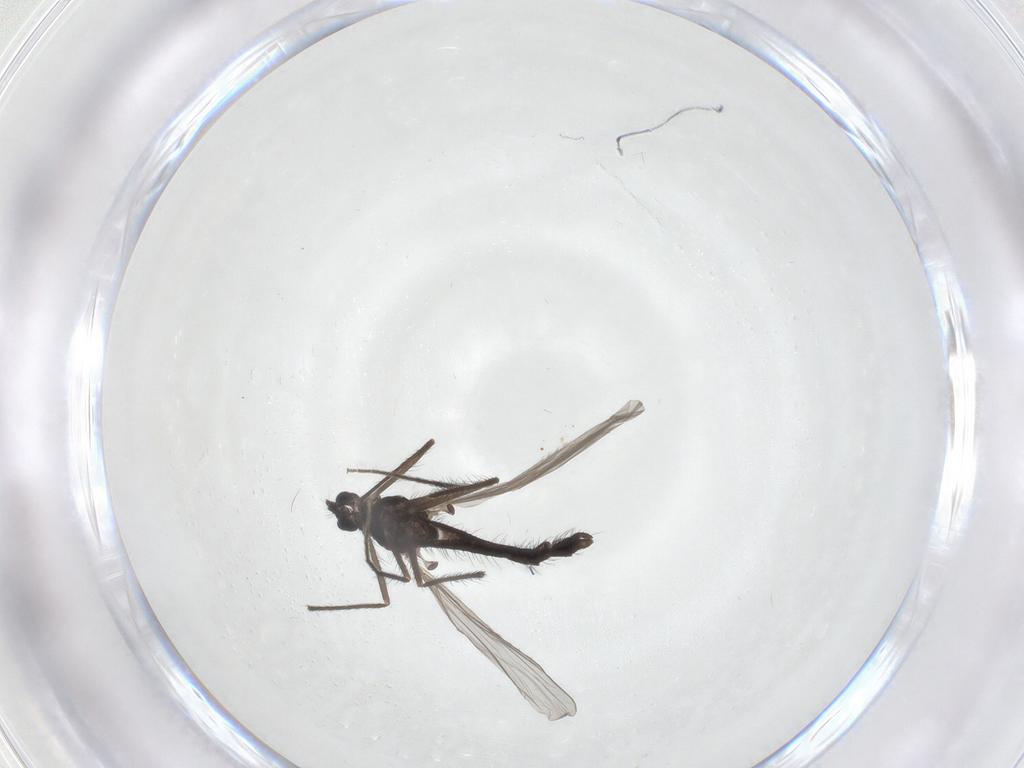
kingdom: Animalia
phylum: Arthropoda
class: Insecta
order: Diptera
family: Chironomidae
